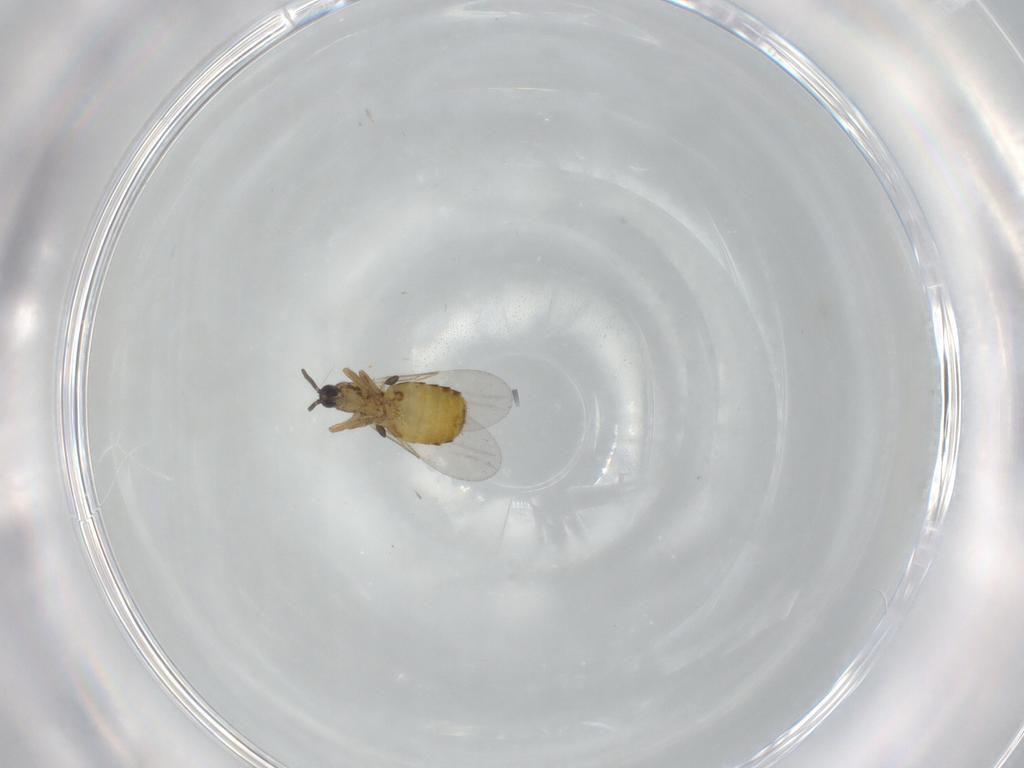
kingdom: Animalia
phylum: Arthropoda
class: Insecta
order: Diptera
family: Scatopsidae
